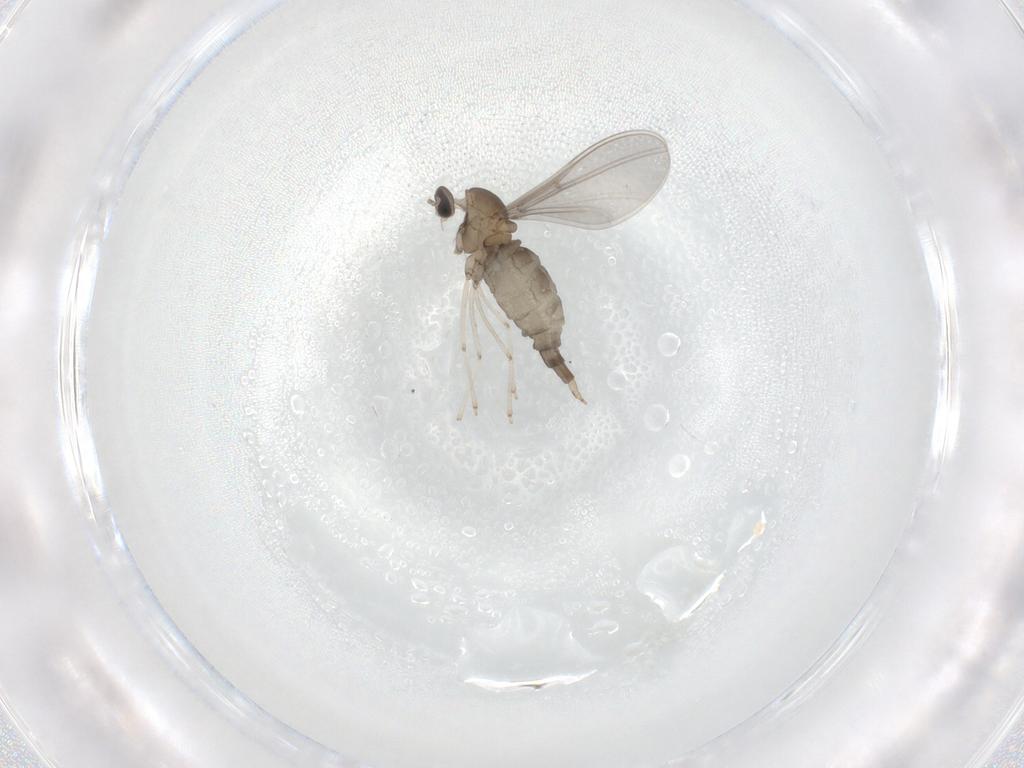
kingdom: Animalia
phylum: Arthropoda
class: Insecta
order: Diptera
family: Cecidomyiidae
